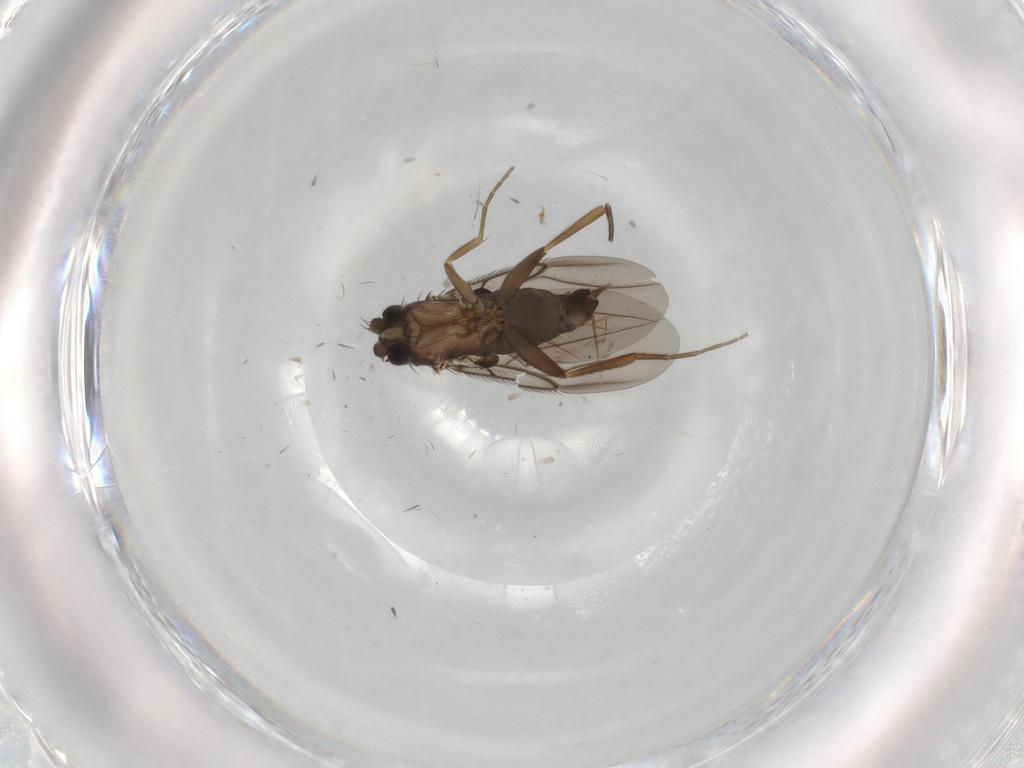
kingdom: Animalia
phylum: Arthropoda
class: Insecta
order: Diptera
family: Phoridae
